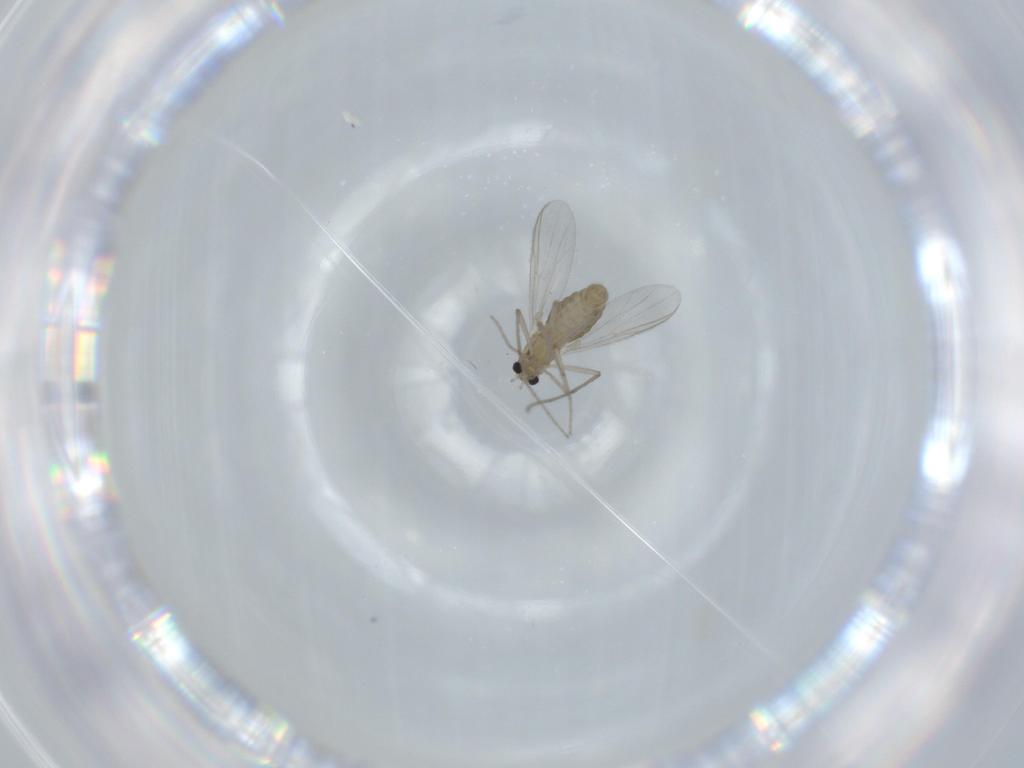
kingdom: Animalia
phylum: Arthropoda
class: Insecta
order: Diptera
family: Chironomidae
